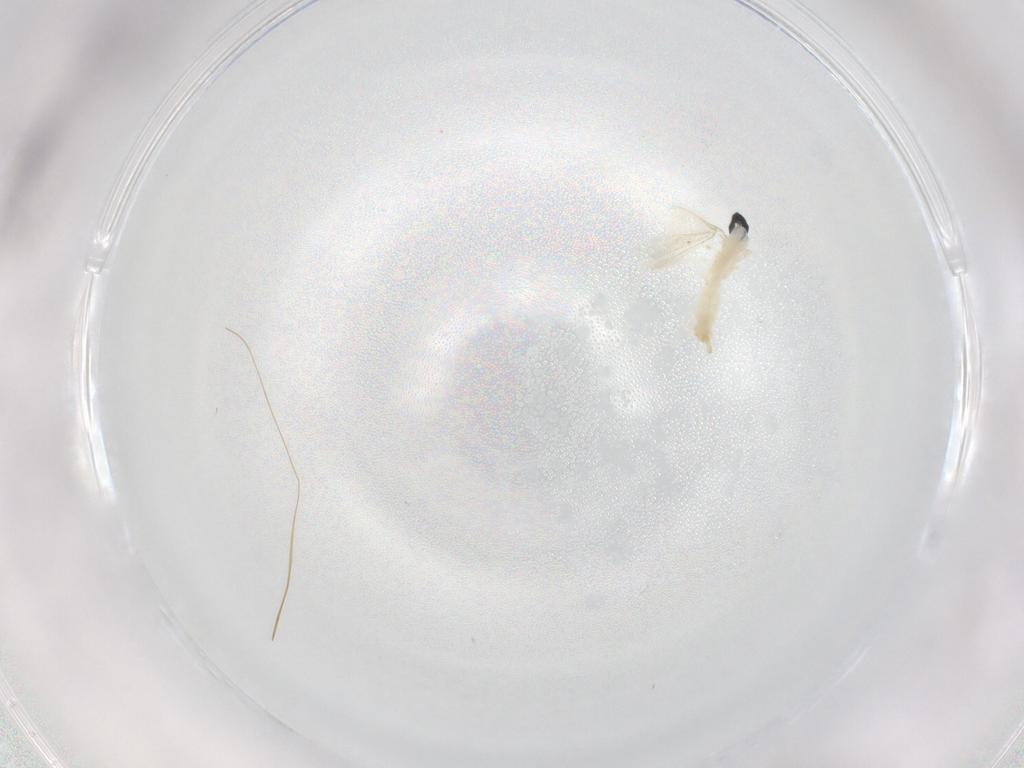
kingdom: Animalia
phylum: Arthropoda
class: Insecta
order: Diptera
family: Cecidomyiidae
